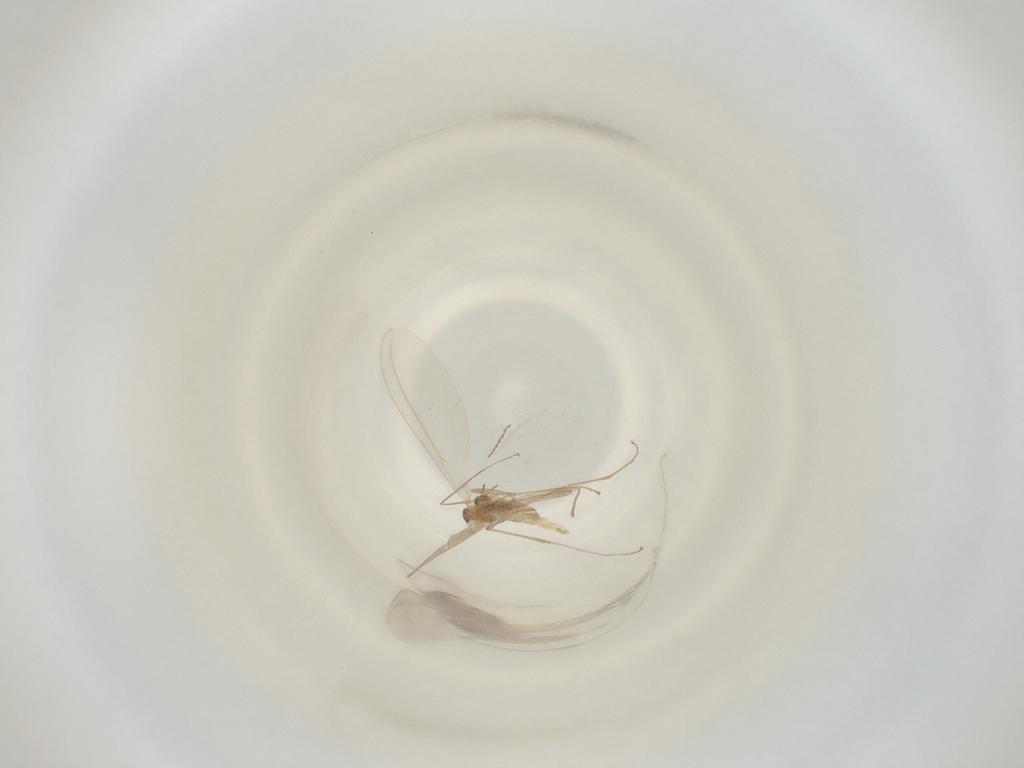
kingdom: Animalia
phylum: Arthropoda
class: Insecta
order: Diptera
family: Cecidomyiidae
